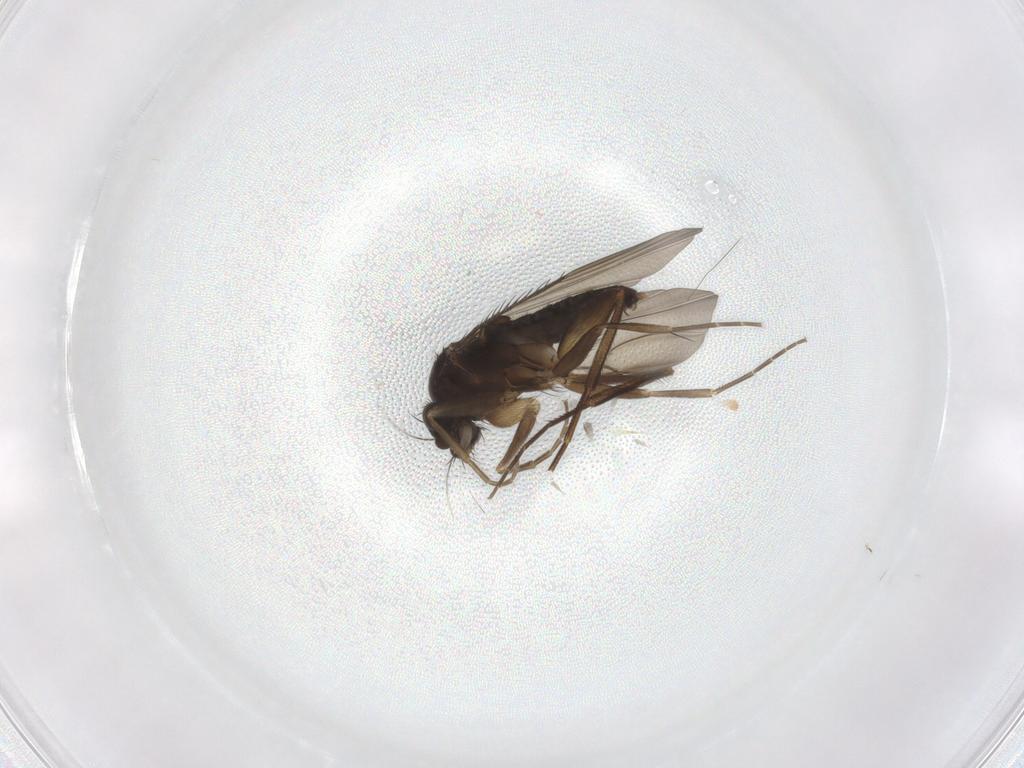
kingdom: Animalia
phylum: Arthropoda
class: Insecta
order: Diptera
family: Phoridae
